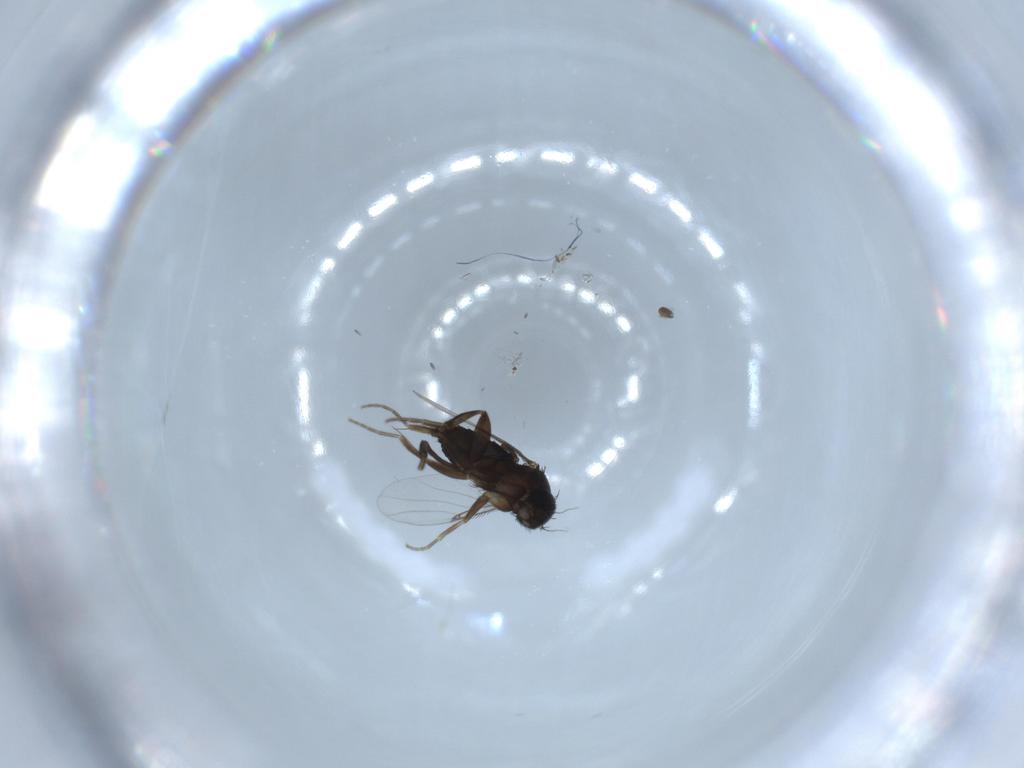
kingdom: Animalia
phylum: Arthropoda
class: Insecta
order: Diptera
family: Phoridae
